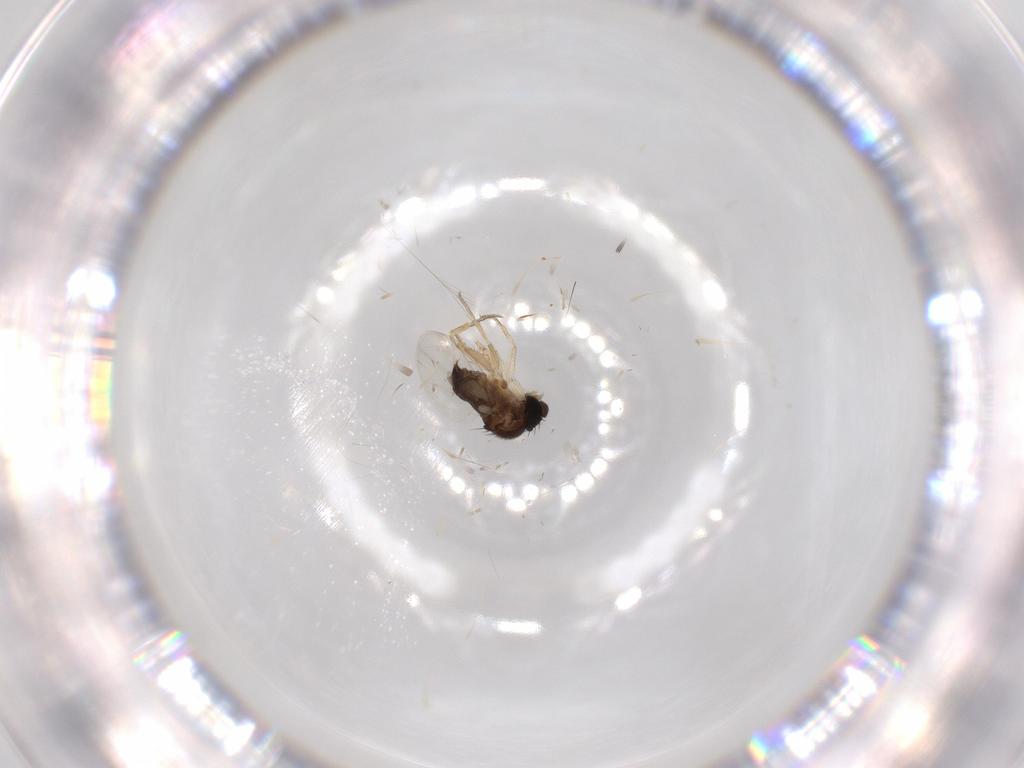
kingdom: Animalia
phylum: Arthropoda
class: Insecta
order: Diptera
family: Phoridae
